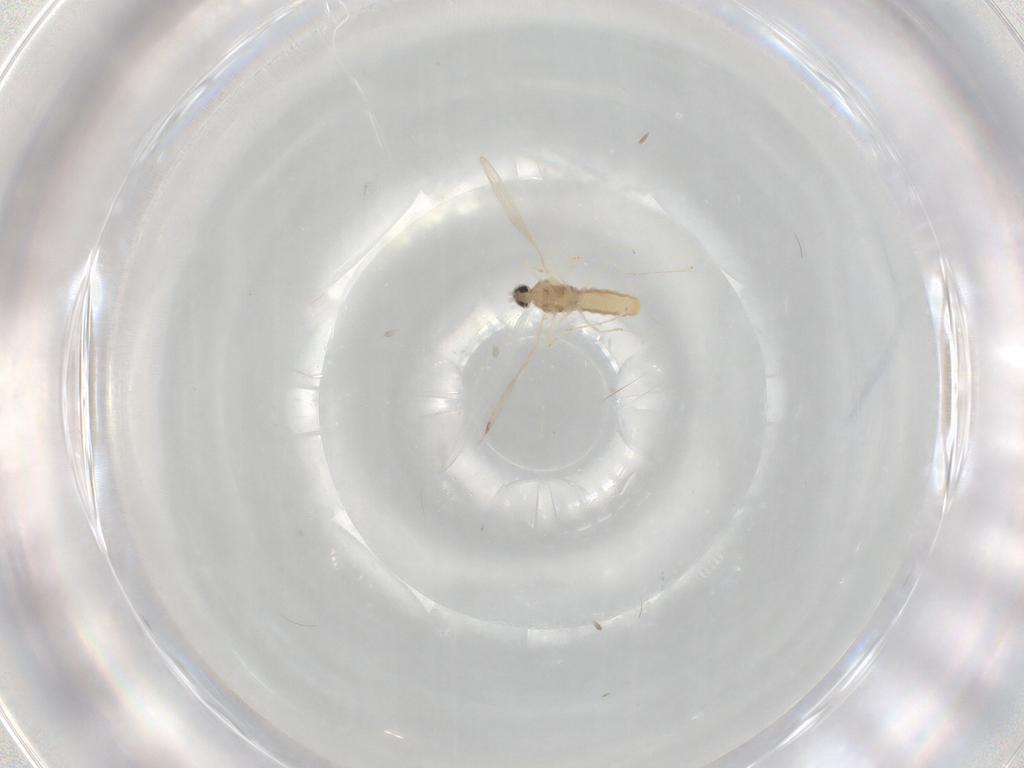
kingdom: Animalia
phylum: Arthropoda
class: Insecta
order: Diptera
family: Cecidomyiidae
